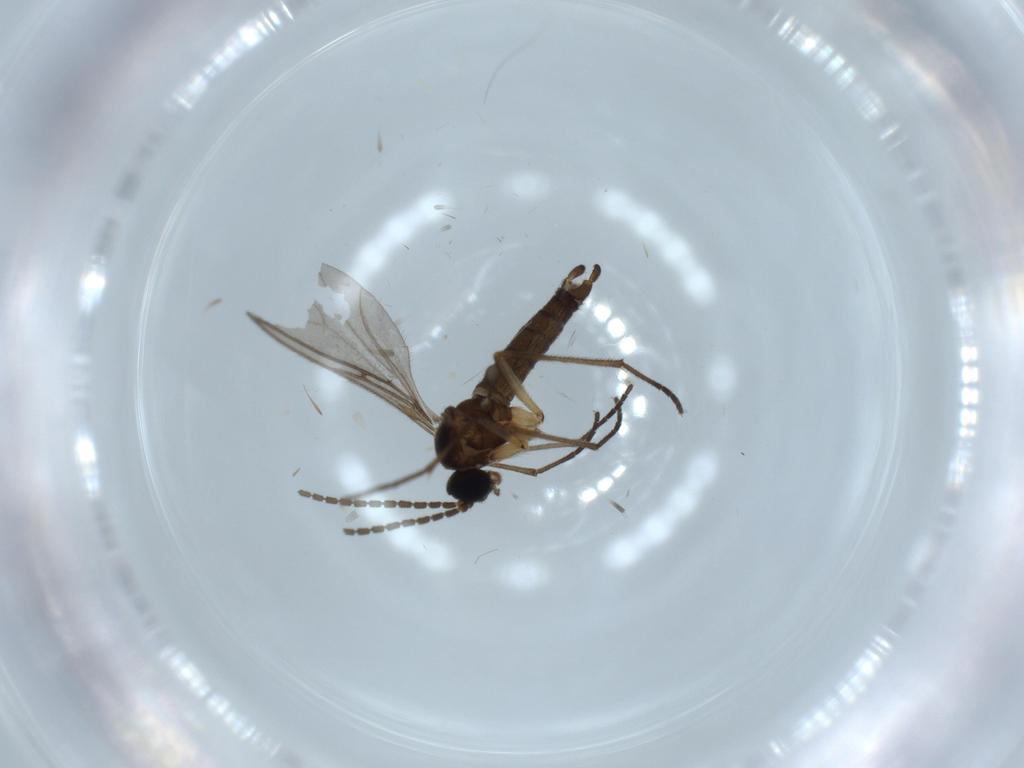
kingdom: Animalia
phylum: Arthropoda
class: Insecta
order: Diptera
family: Sciaridae
